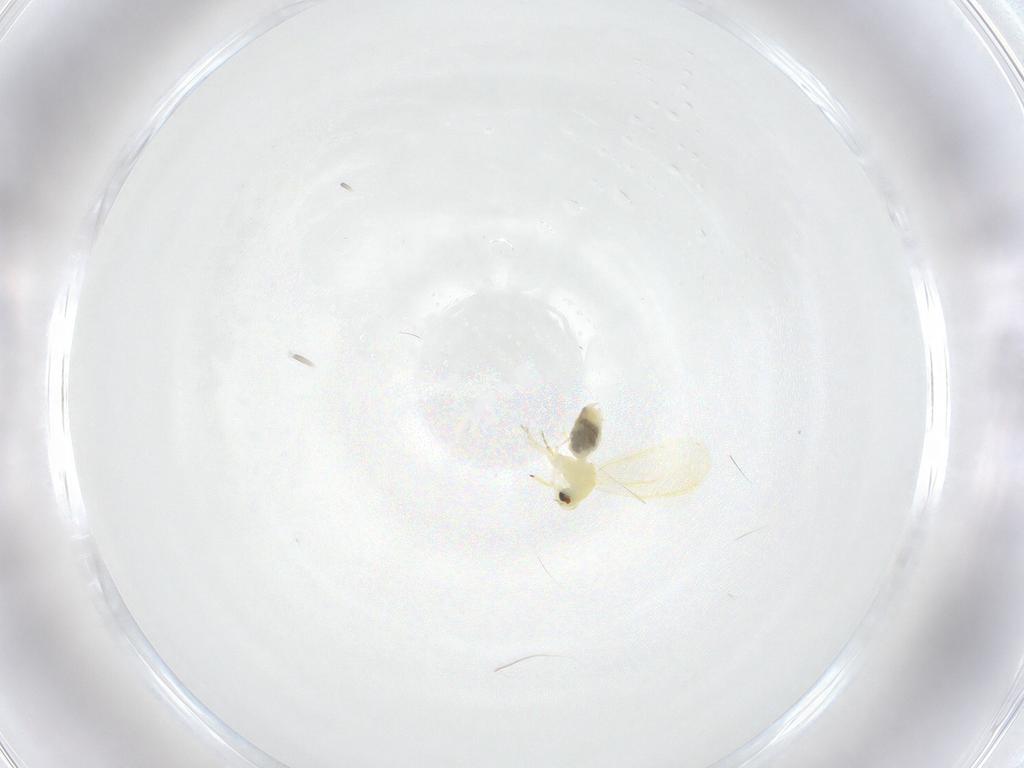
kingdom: Animalia
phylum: Arthropoda
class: Insecta
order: Hemiptera
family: Aleyrodidae
